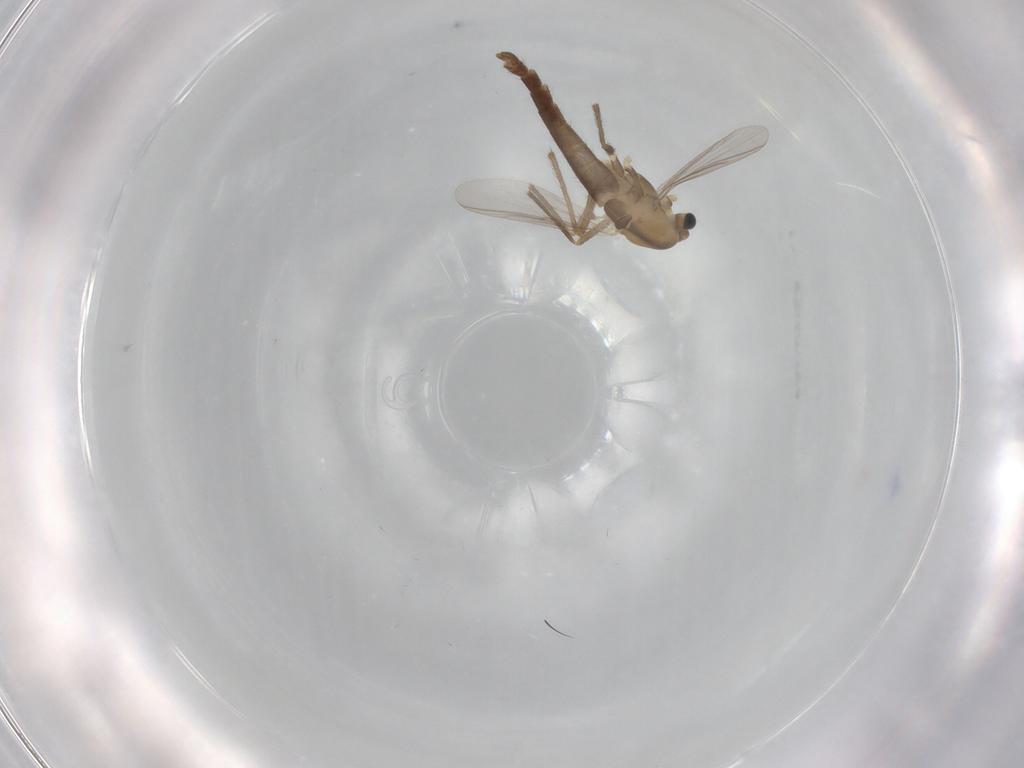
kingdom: Animalia
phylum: Arthropoda
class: Insecta
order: Diptera
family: Chironomidae
